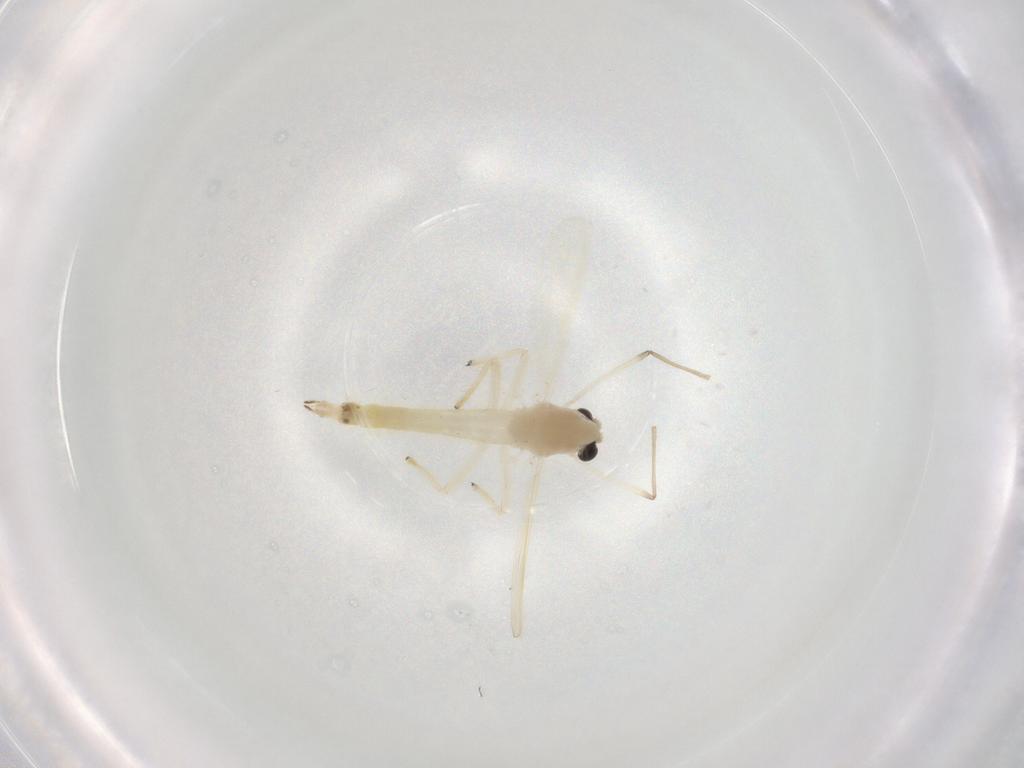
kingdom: Animalia
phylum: Arthropoda
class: Insecta
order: Diptera
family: Chironomidae
